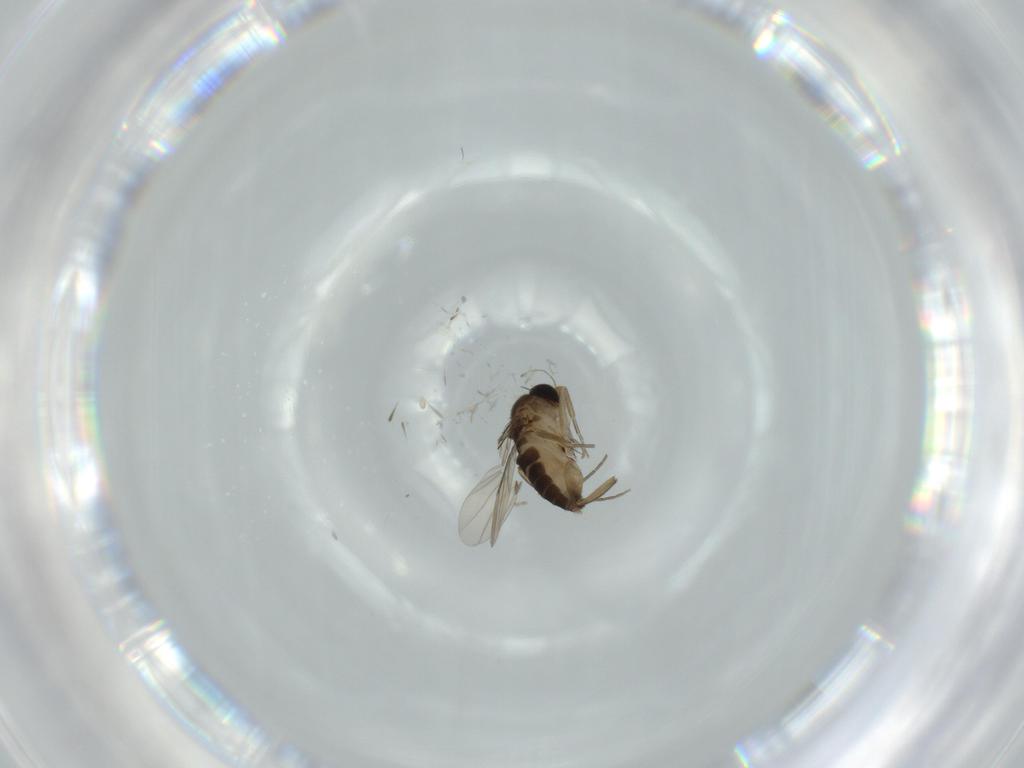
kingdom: Animalia
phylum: Arthropoda
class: Insecta
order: Diptera
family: Phoridae
